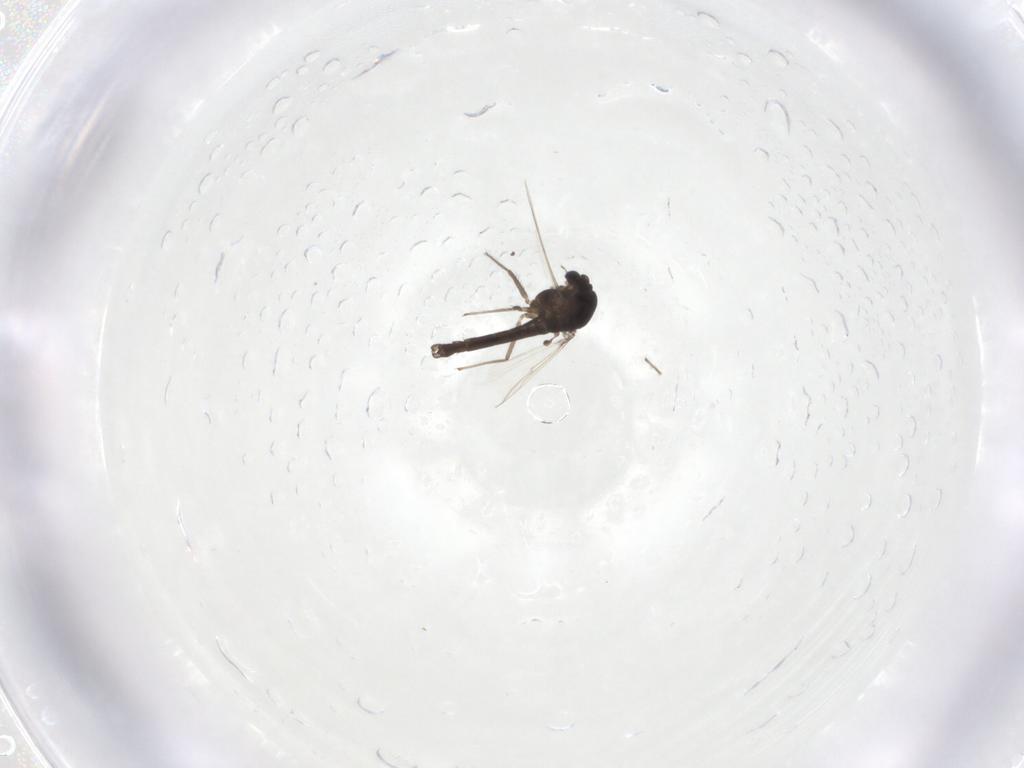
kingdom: Animalia
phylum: Arthropoda
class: Insecta
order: Diptera
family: Chironomidae
